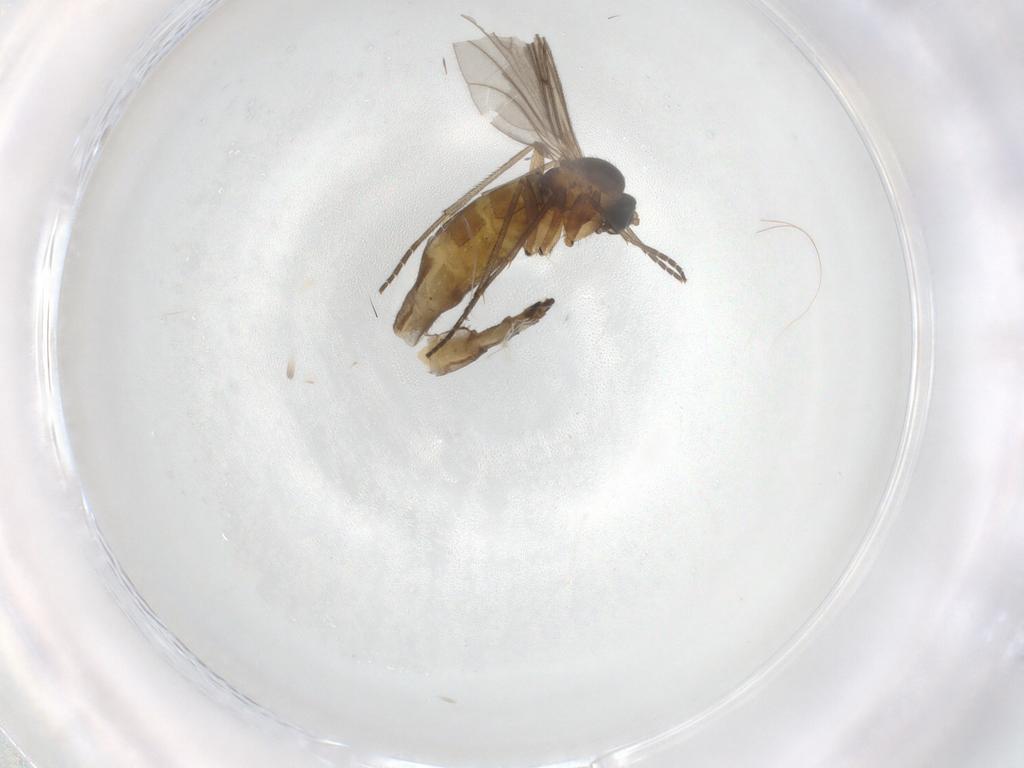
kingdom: Animalia
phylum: Arthropoda
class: Insecta
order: Diptera
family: Sciaridae
